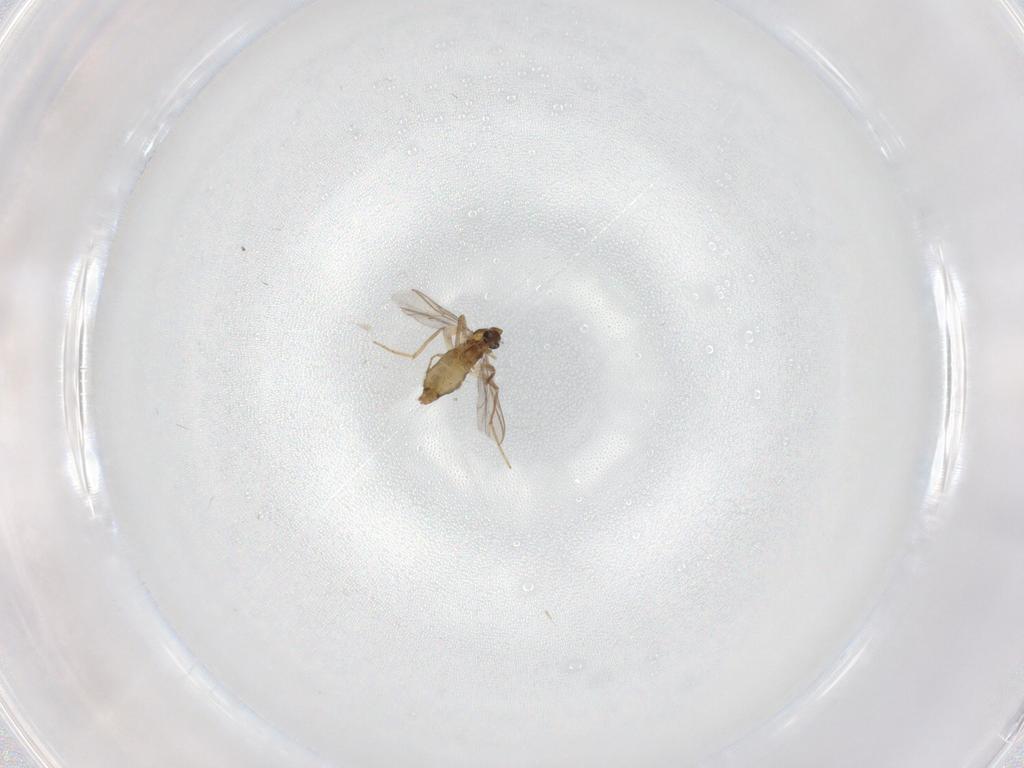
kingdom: Animalia
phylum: Arthropoda
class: Insecta
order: Diptera
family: Chironomidae
